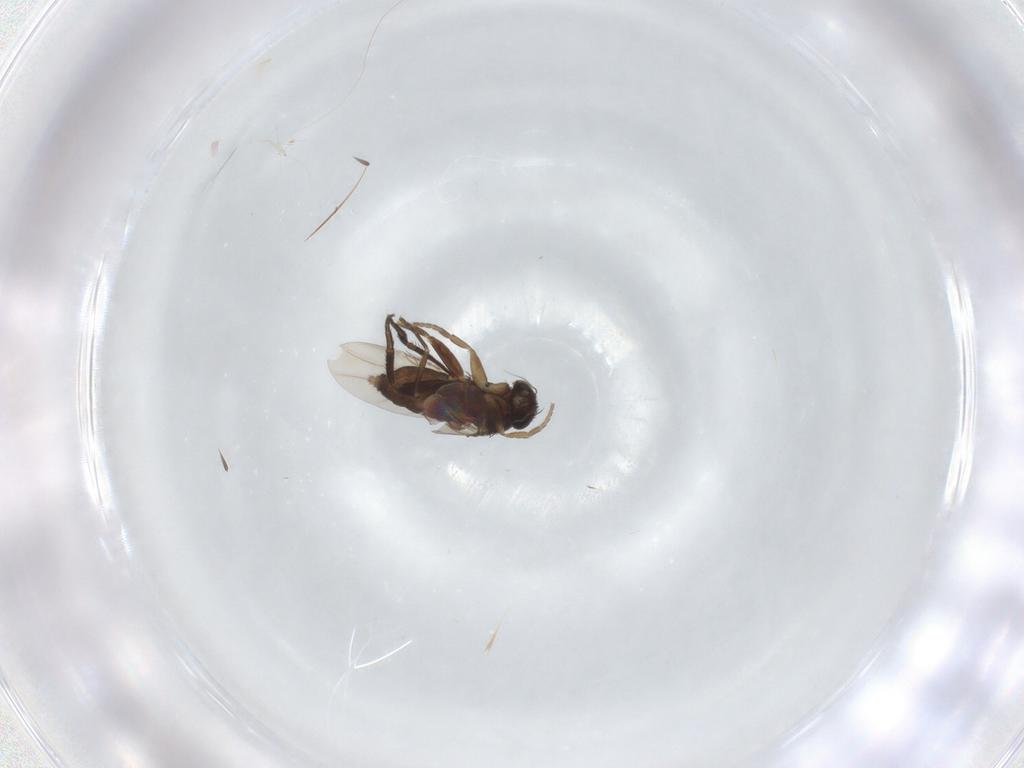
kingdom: Animalia
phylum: Arthropoda
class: Insecta
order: Diptera
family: Phoridae
